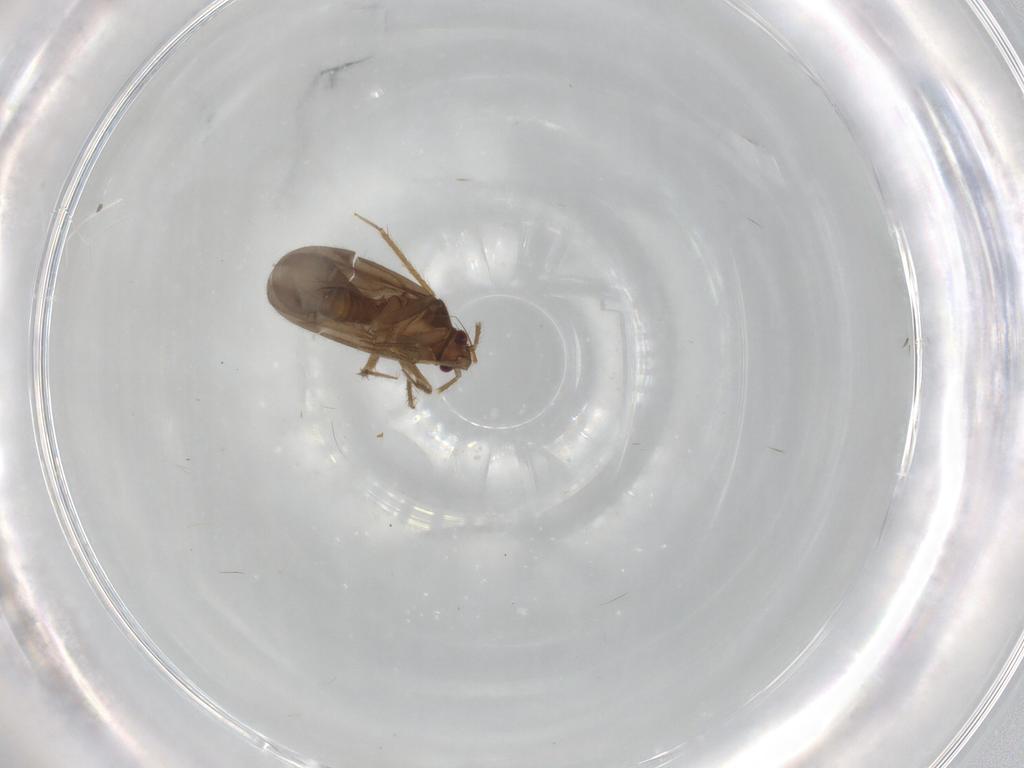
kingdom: Animalia
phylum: Arthropoda
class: Insecta
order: Hemiptera
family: Ceratocombidae
